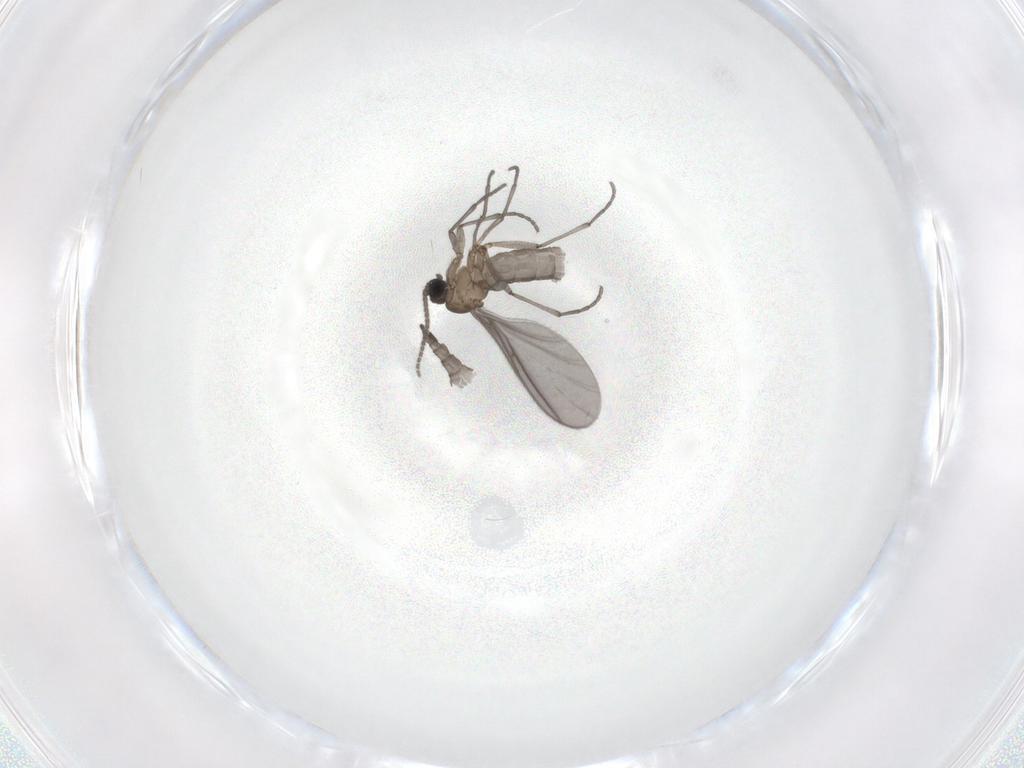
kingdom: Animalia
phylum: Arthropoda
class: Insecta
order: Diptera
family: Sciaridae
